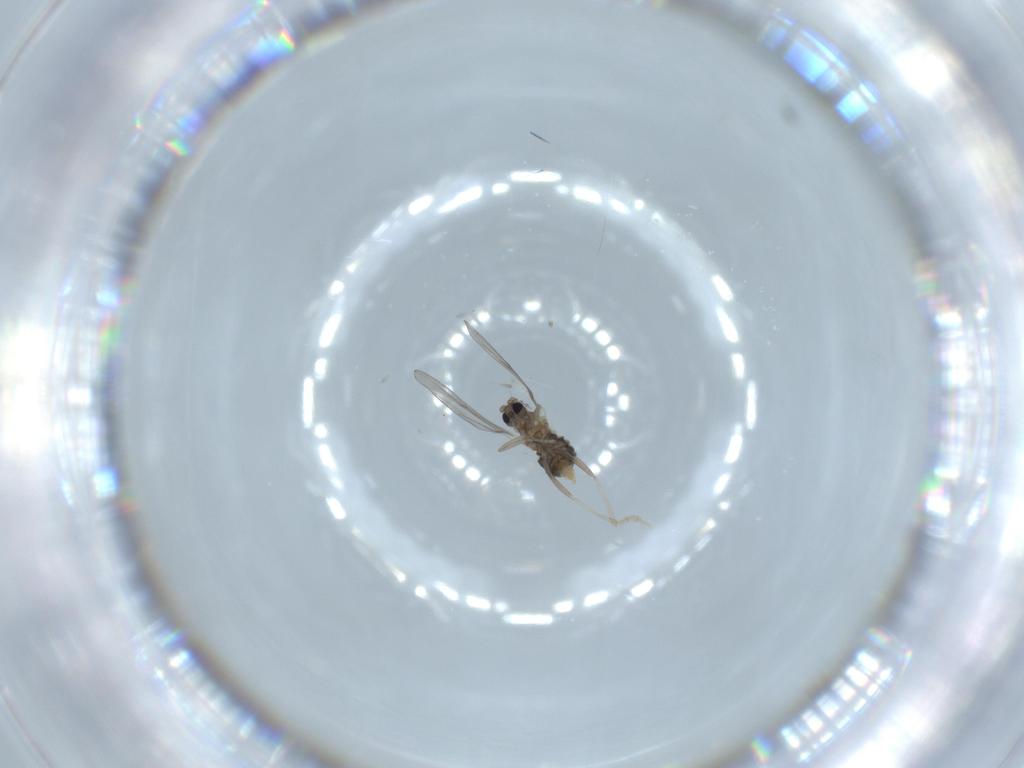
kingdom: Animalia
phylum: Arthropoda
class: Insecta
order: Diptera
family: Cecidomyiidae
